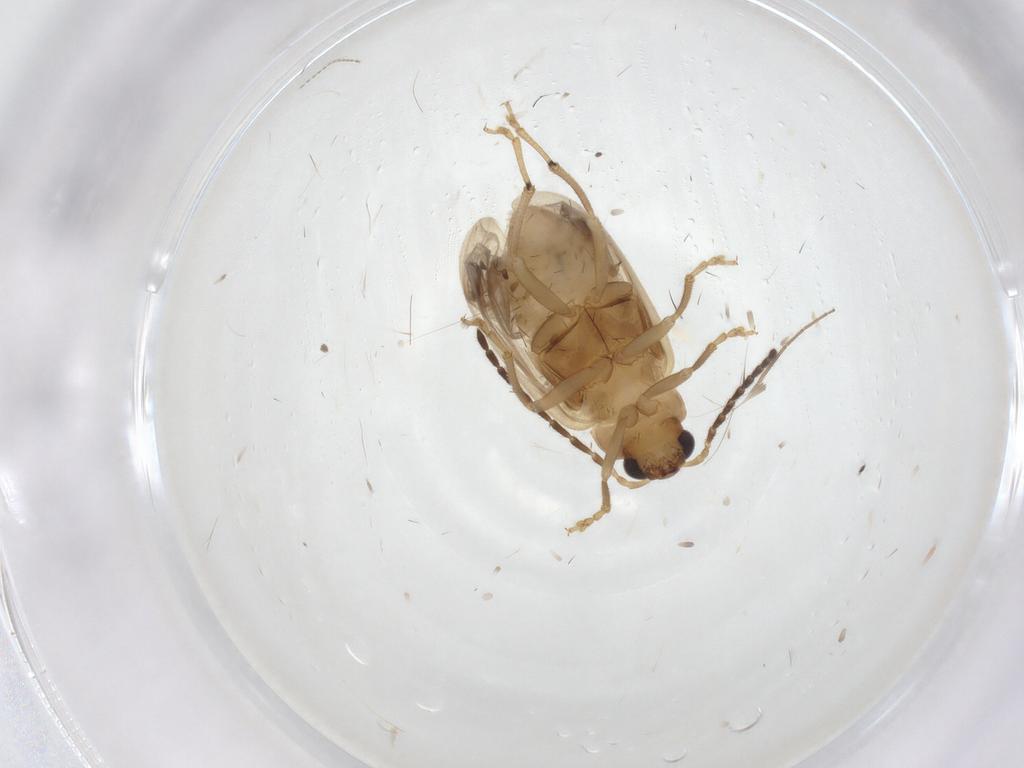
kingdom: Animalia
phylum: Arthropoda
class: Insecta
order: Coleoptera
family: Chrysomelidae
